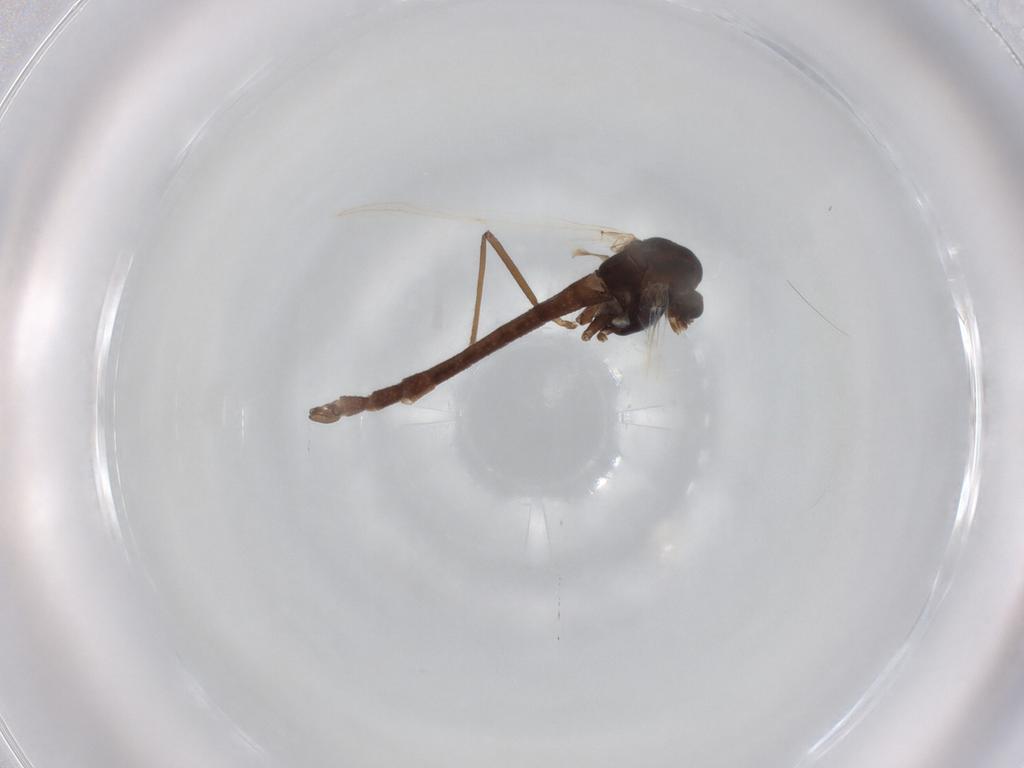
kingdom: Animalia
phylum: Arthropoda
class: Insecta
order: Diptera
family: Chironomidae
